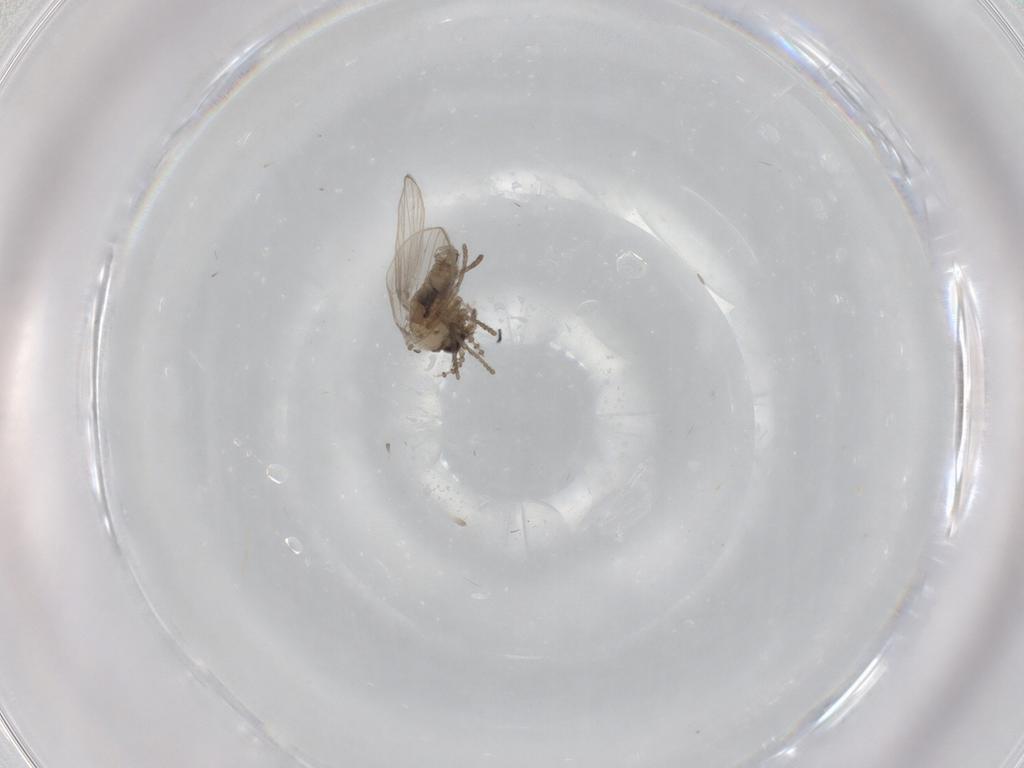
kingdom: Animalia
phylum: Arthropoda
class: Insecta
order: Diptera
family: Psychodidae
